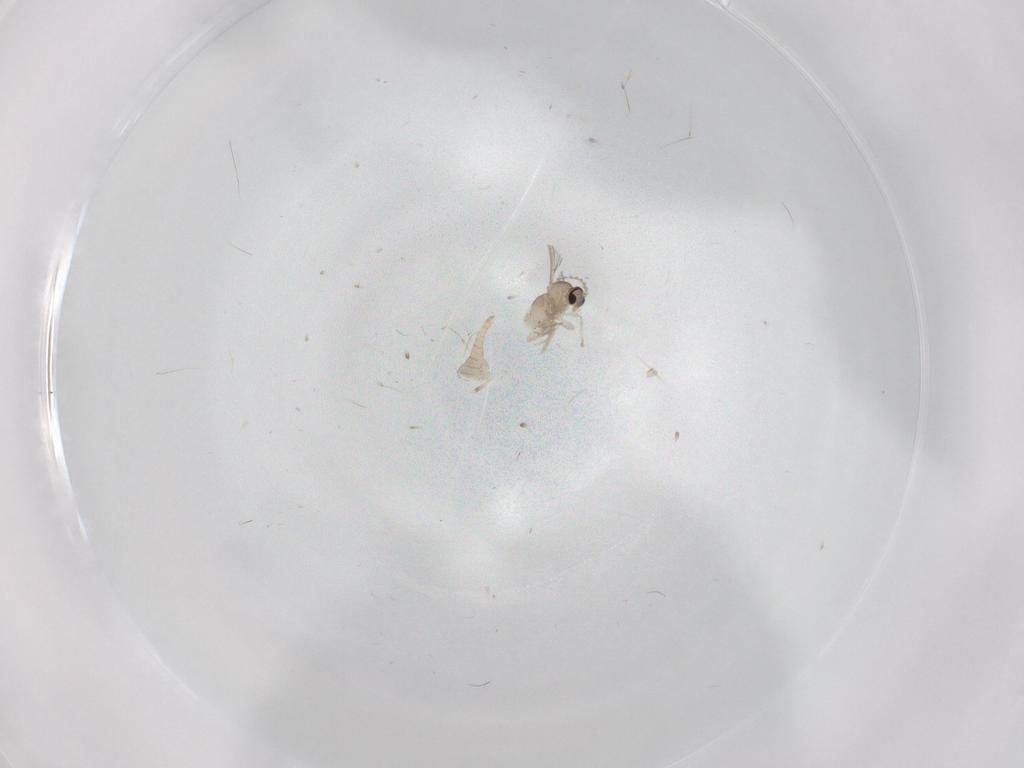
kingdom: Animalia
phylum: Arthropoda
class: Insecta
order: Diptera
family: Cecidomyiidae
